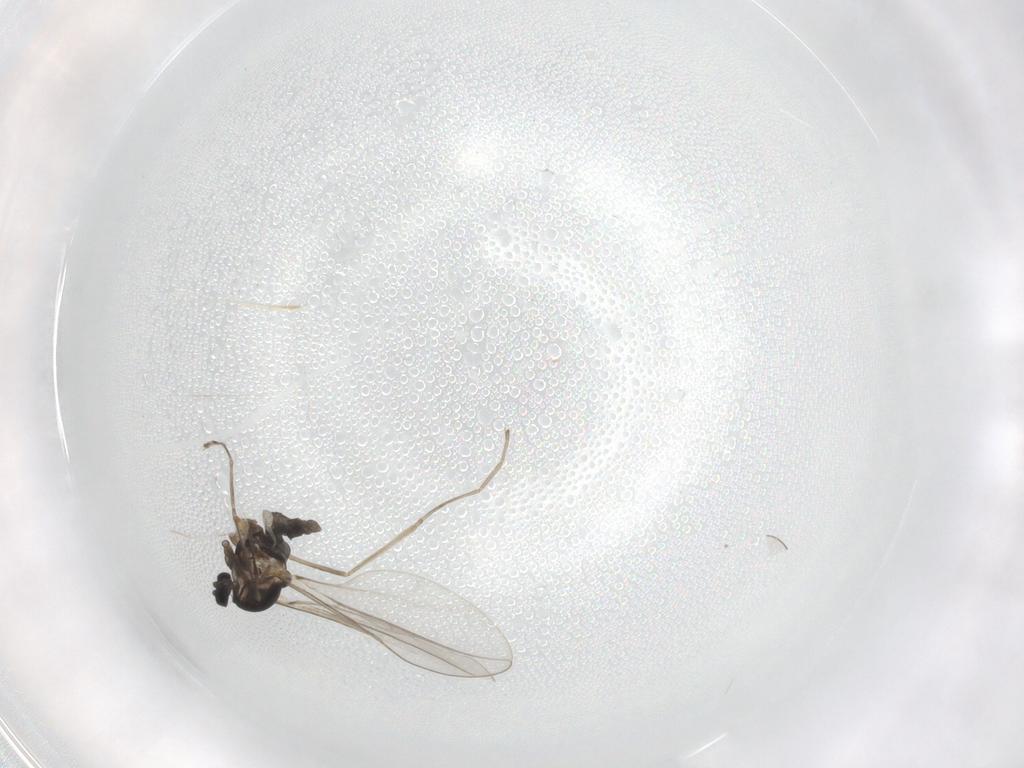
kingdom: Animalia
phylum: Arthropoda
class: Insecta
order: Diptera
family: Cecidomyiidae
